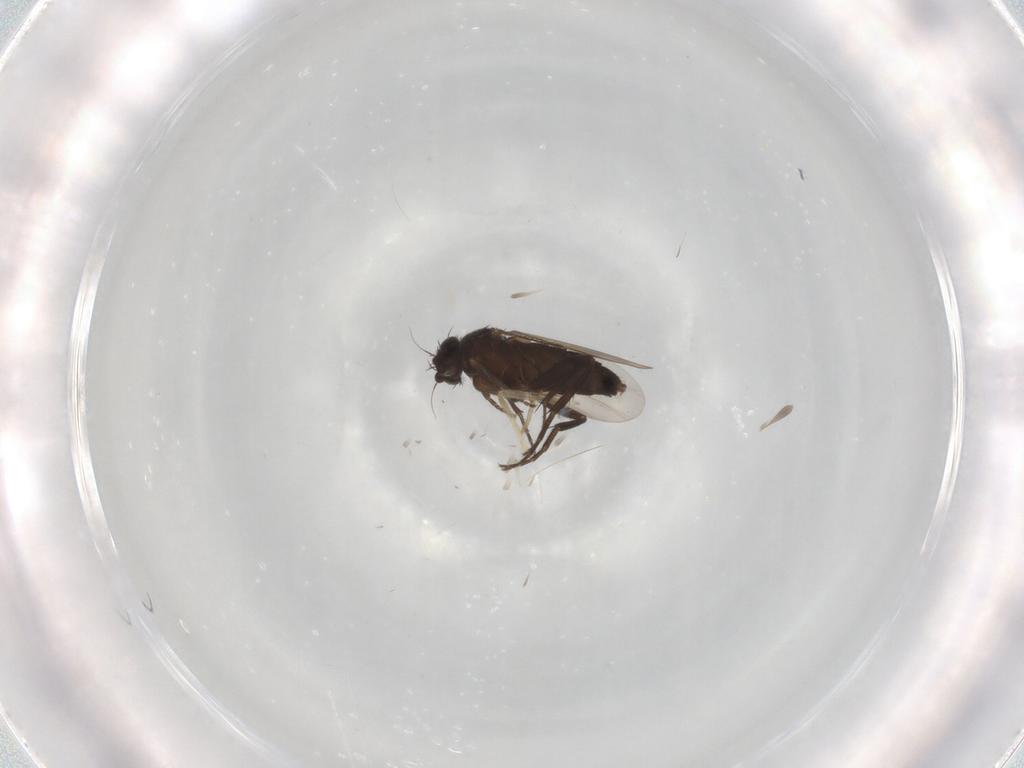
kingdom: Animalia
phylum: Arthropoda
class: Insecta
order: Diptera
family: Phoridae
